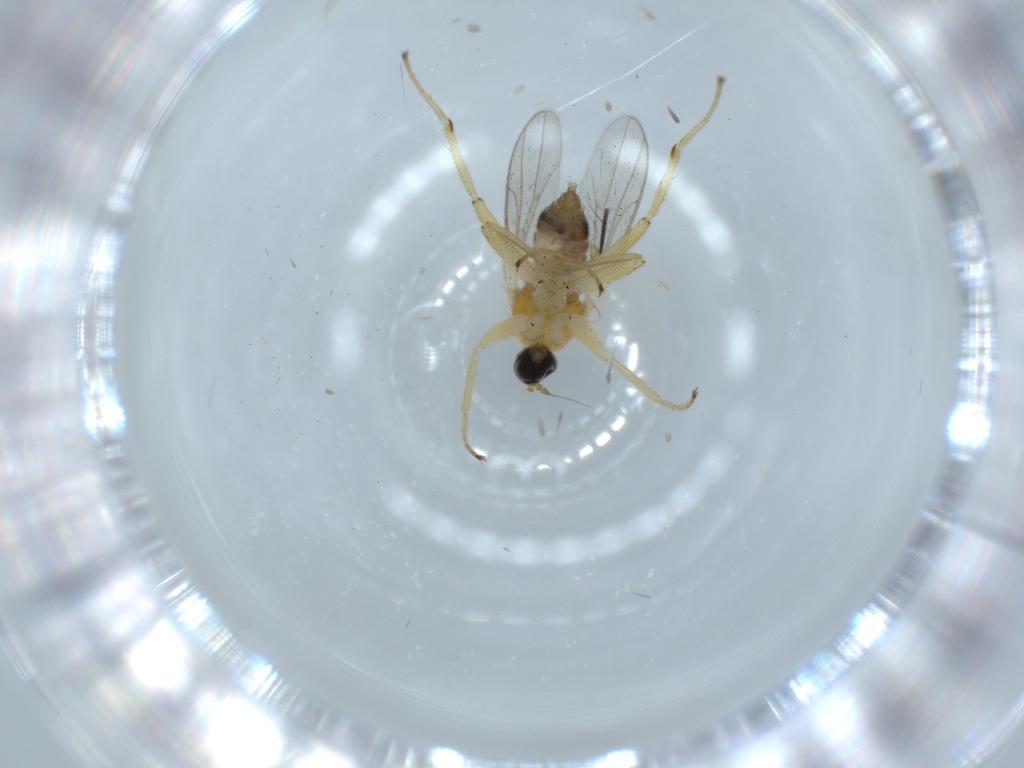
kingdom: Animalia
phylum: Arthropoda
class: Insecta
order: Diptera
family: Hybotidae
